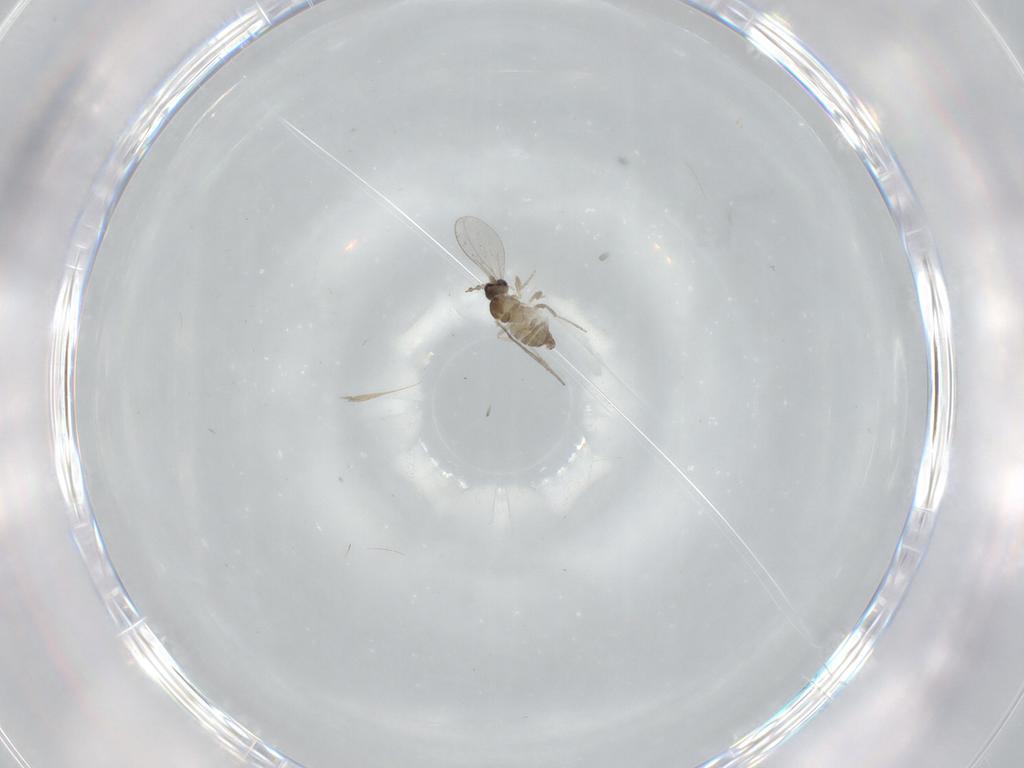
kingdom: Animalia
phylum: Arthropoda
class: Insecta
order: Diptera
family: Cecidomyiidae
